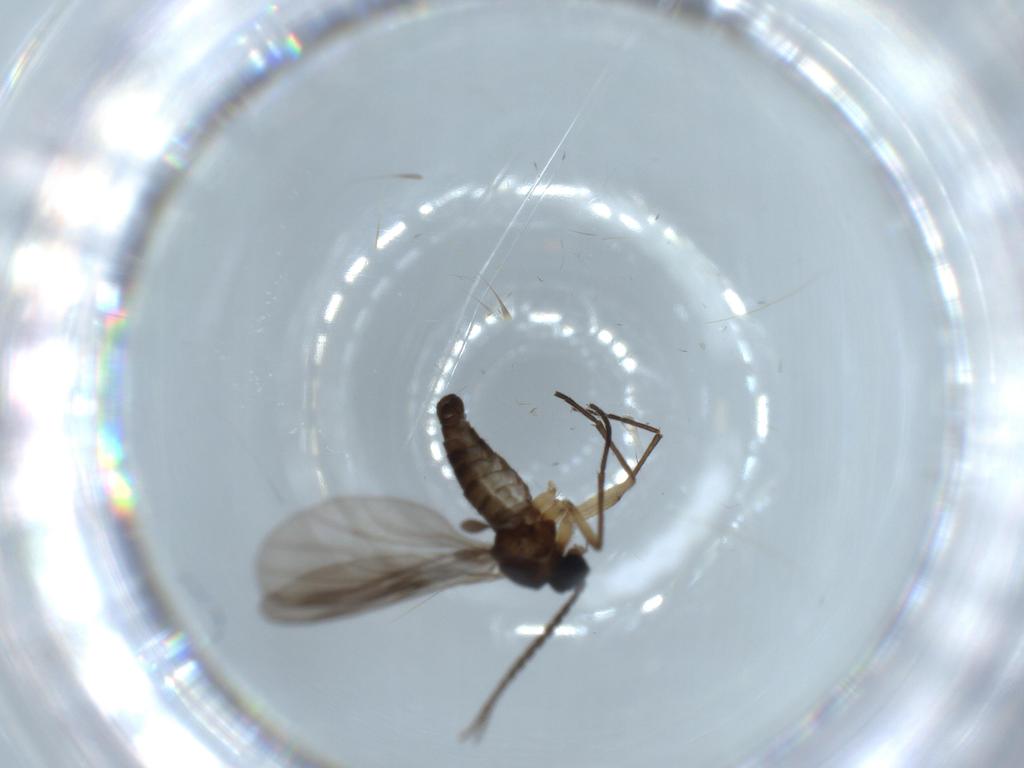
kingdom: Animalia
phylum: Arthropoda
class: Insecta
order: Diptera
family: Sciaridae
